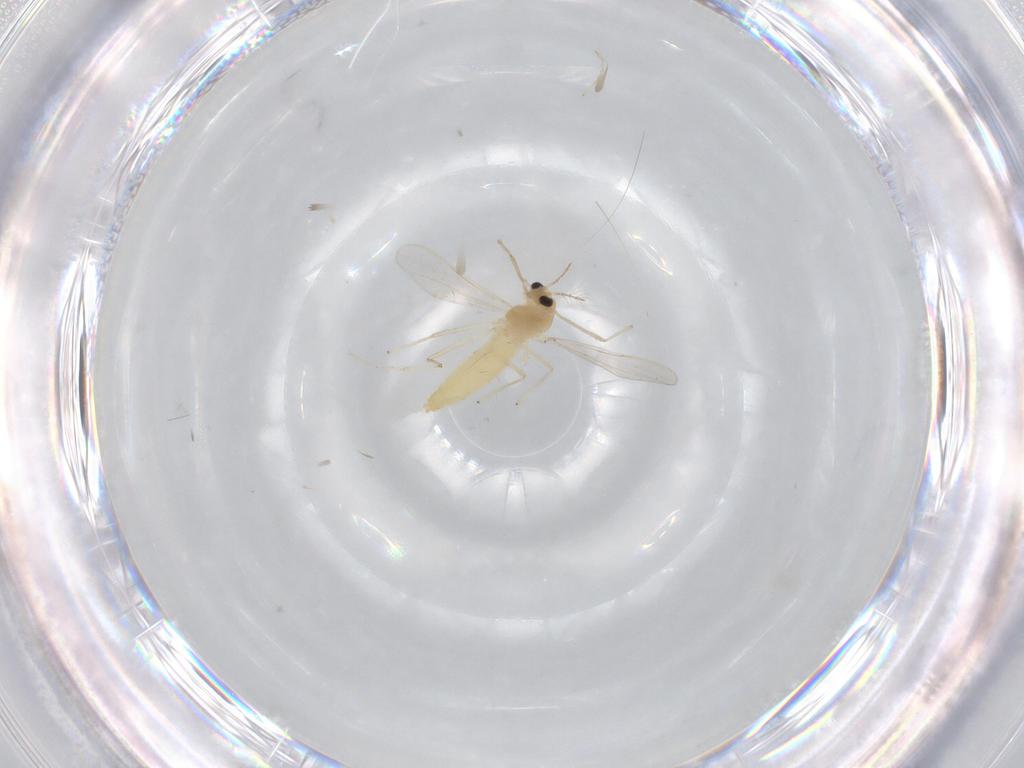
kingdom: Animalia
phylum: Arthropoda
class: Insecta
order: Diptera
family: Chironomidae
